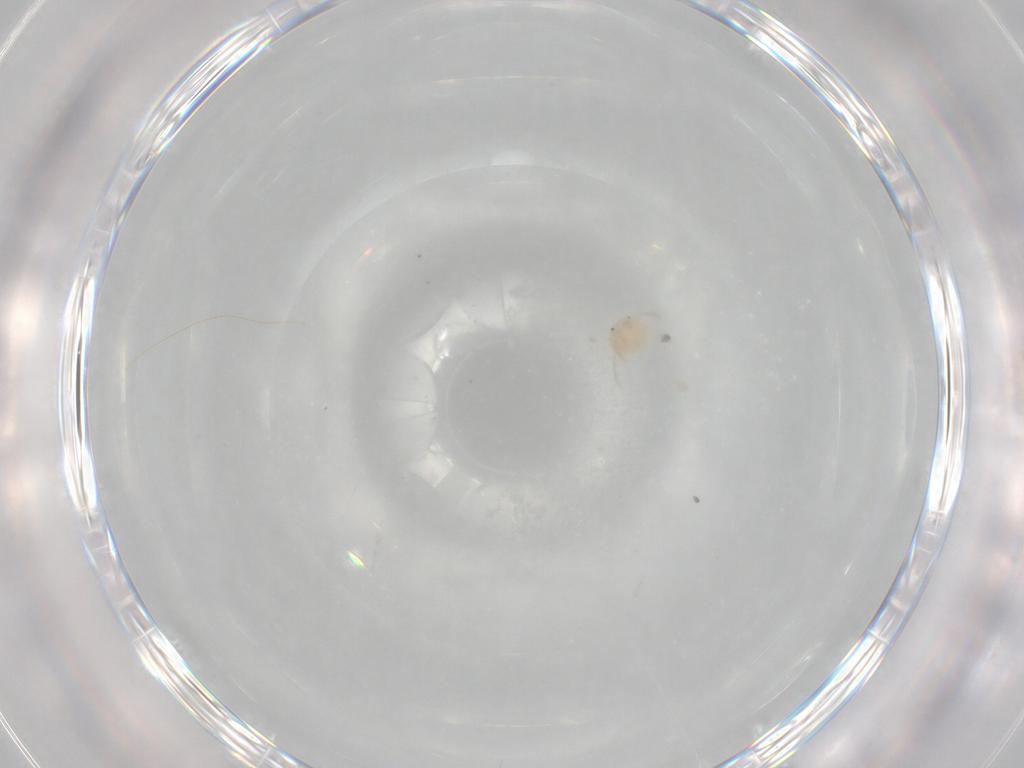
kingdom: Animalia
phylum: Arthropoda
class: Arachnida
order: Trombidiformes
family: Sperchontidae
